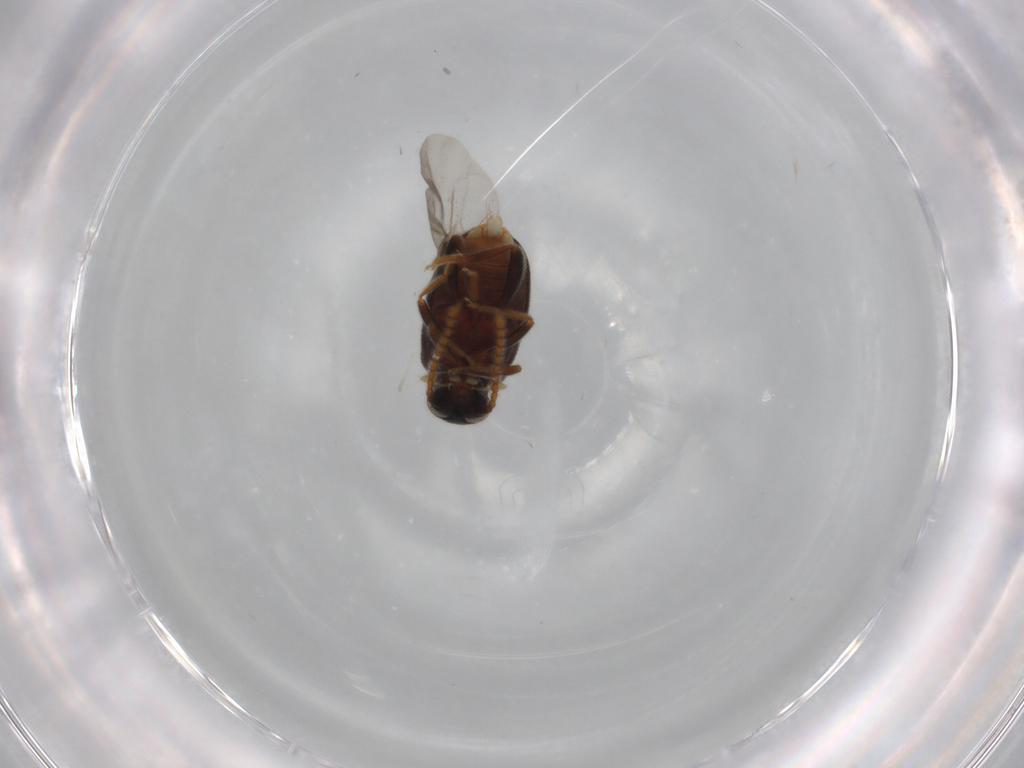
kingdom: Animalia
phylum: Arthropoda
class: Insecta
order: Coleoptera
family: Aderidae
